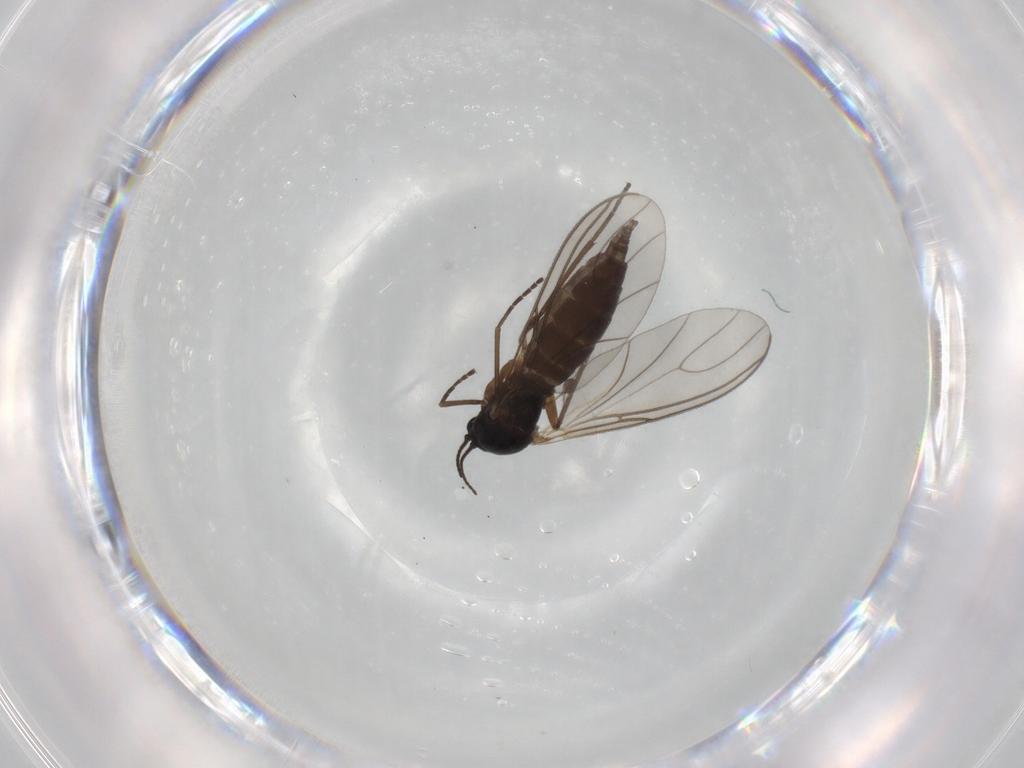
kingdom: Animalia
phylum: Arthropoda
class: Insecta
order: Diptera
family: Sciaridae
